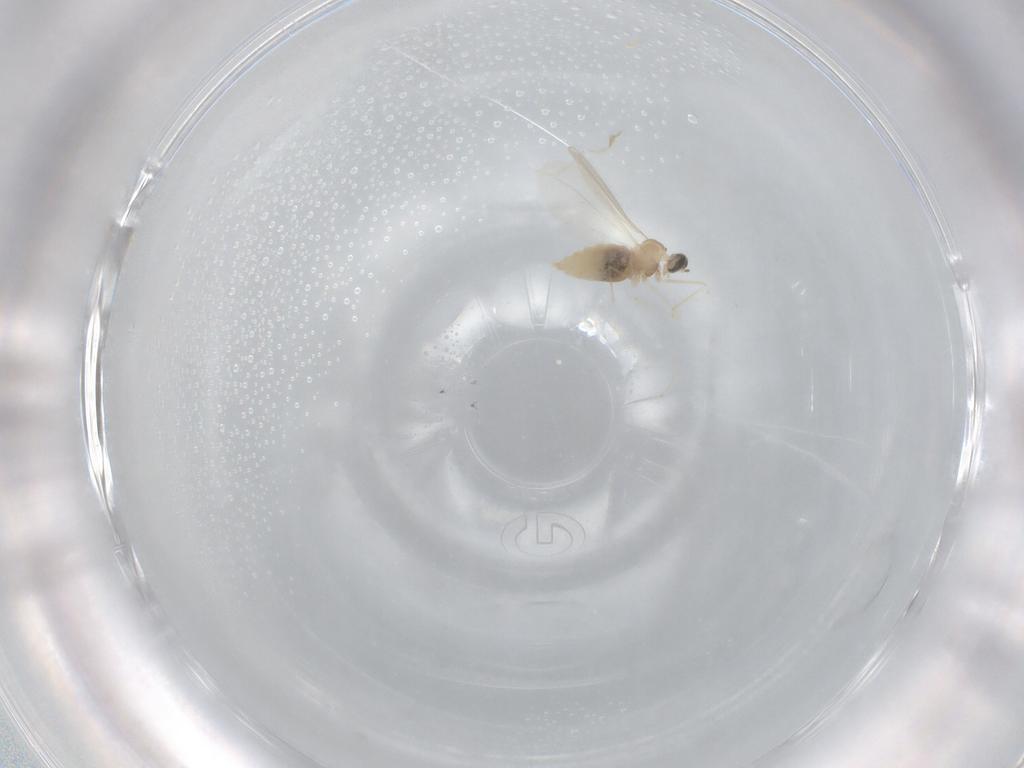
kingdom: Animalia
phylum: Arthropoda
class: Insecta
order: Diptera
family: Cecidomyiidae
